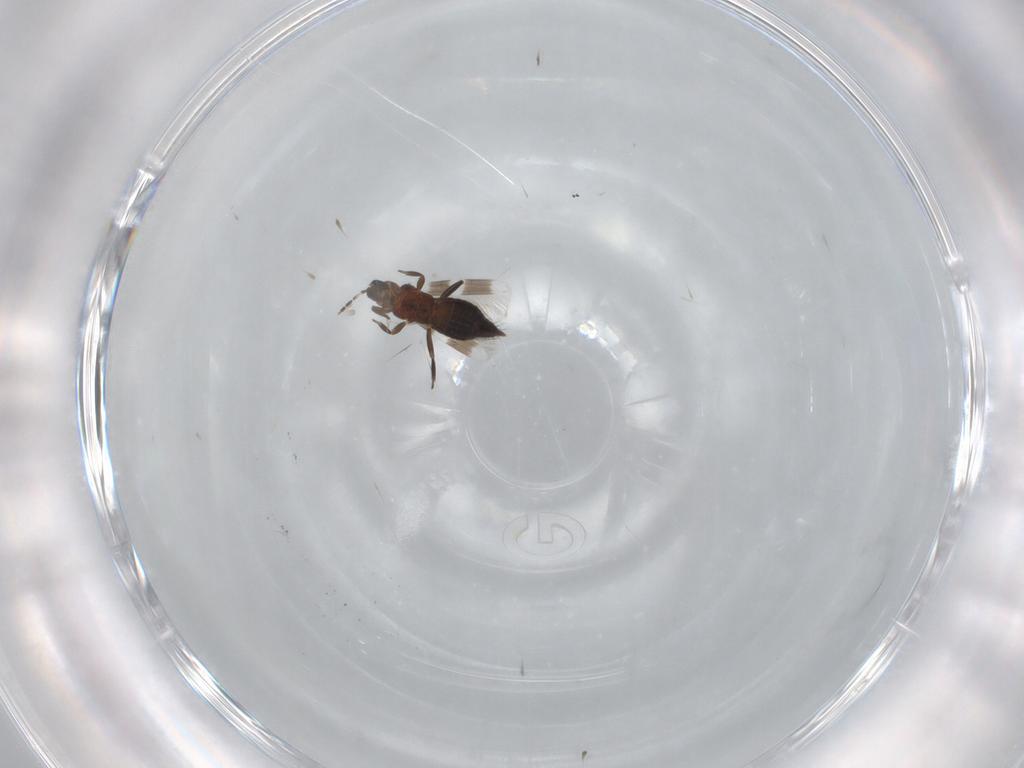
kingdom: Animalia
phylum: Arthropoda
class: Insecta
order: Thysanoptera
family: Aeolothripidae
